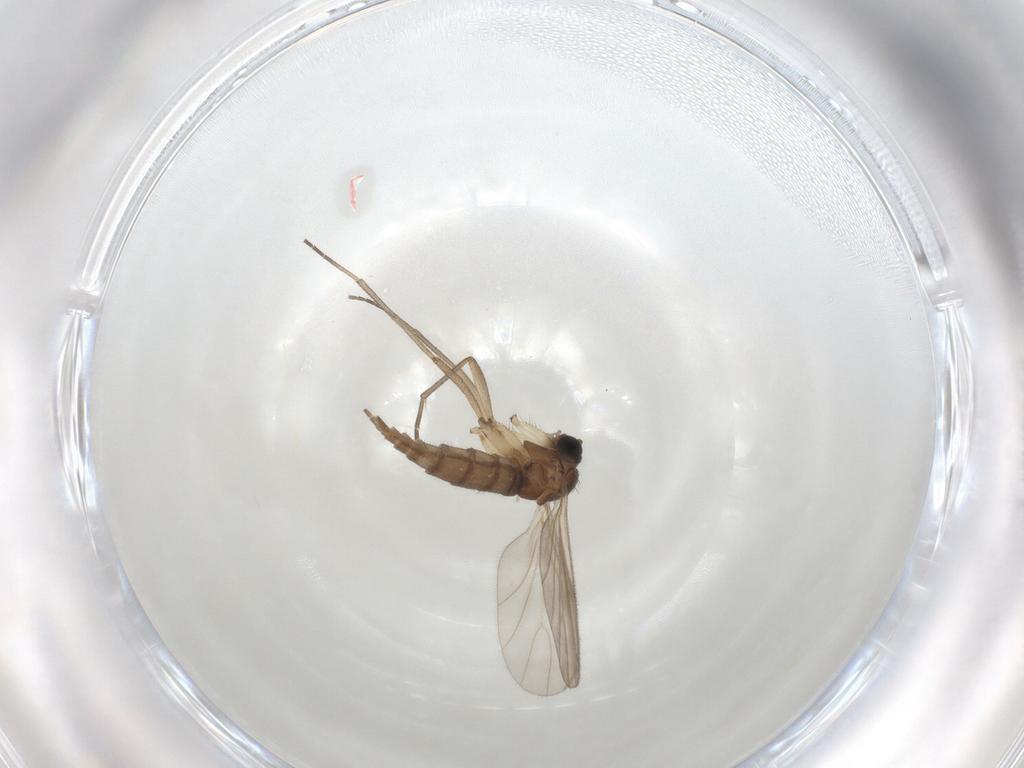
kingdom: Animalia
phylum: Arthropoda
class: Insecta
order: Diptera
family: Sciaridae
